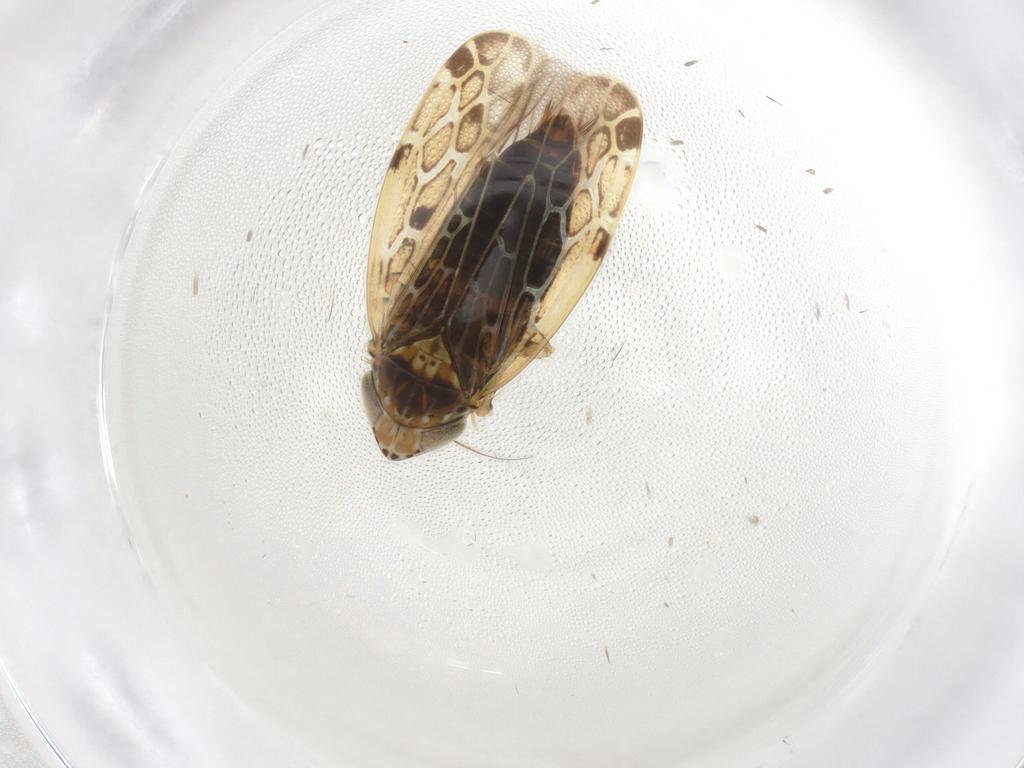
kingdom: Animalia
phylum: Arthropoda
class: Insecta
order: Hemiptera
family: Cicadellidae
